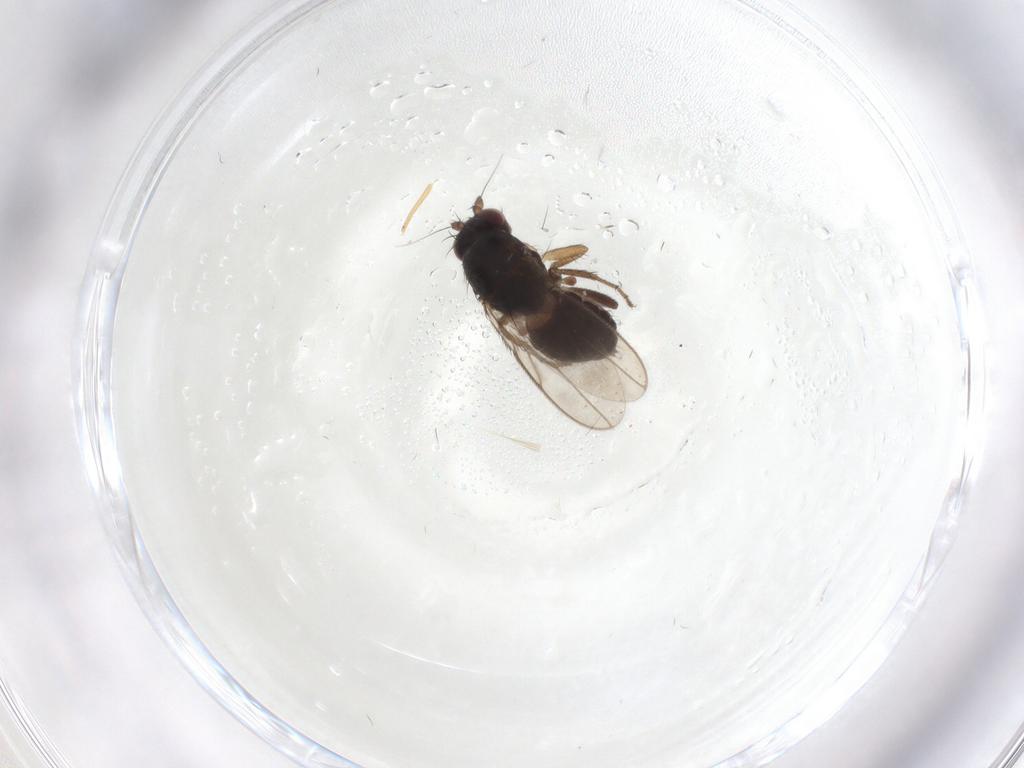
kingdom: Animalia
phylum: Arthropoda
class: Insecta
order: Diptera
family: Sphaeroceridae
